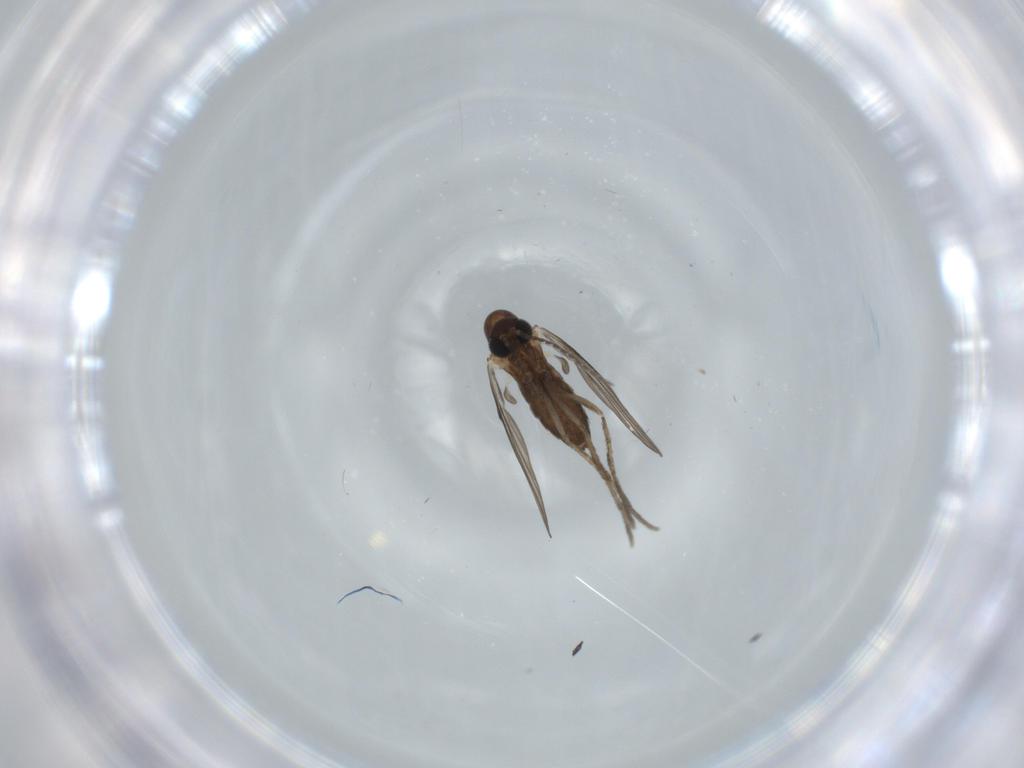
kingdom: Animalia
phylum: Arthropoda
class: Insecta
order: Diptera
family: Psychodidae
